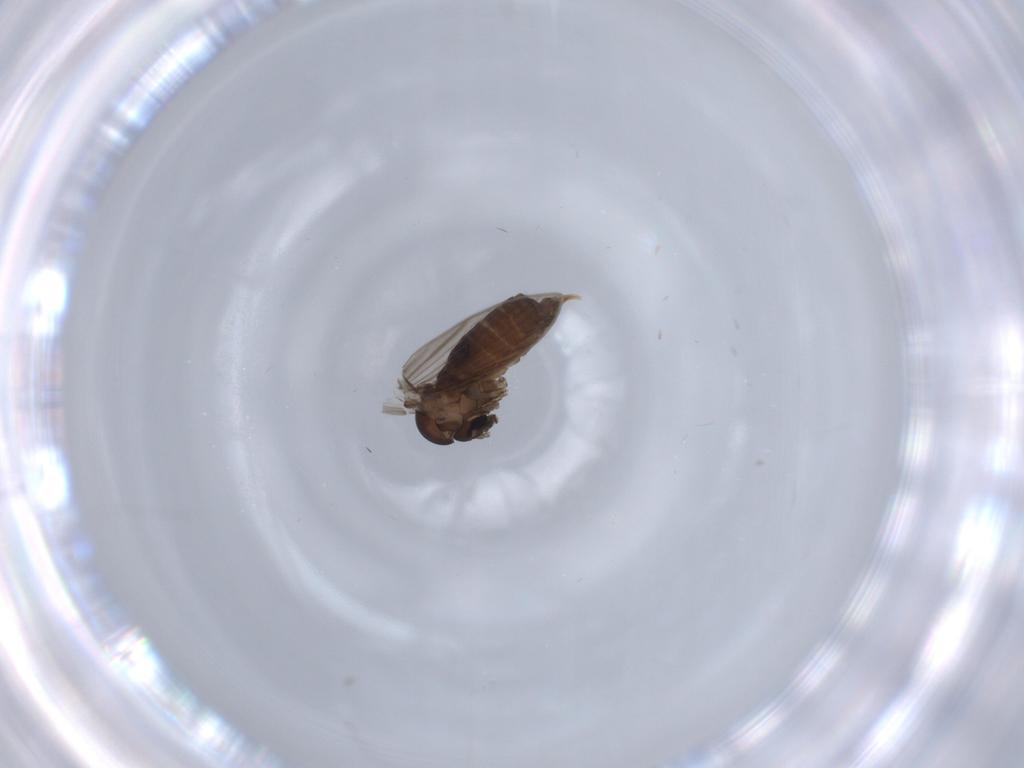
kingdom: Animalia
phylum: Arthropoda
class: Insecta
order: Diptera
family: Psychodidae
